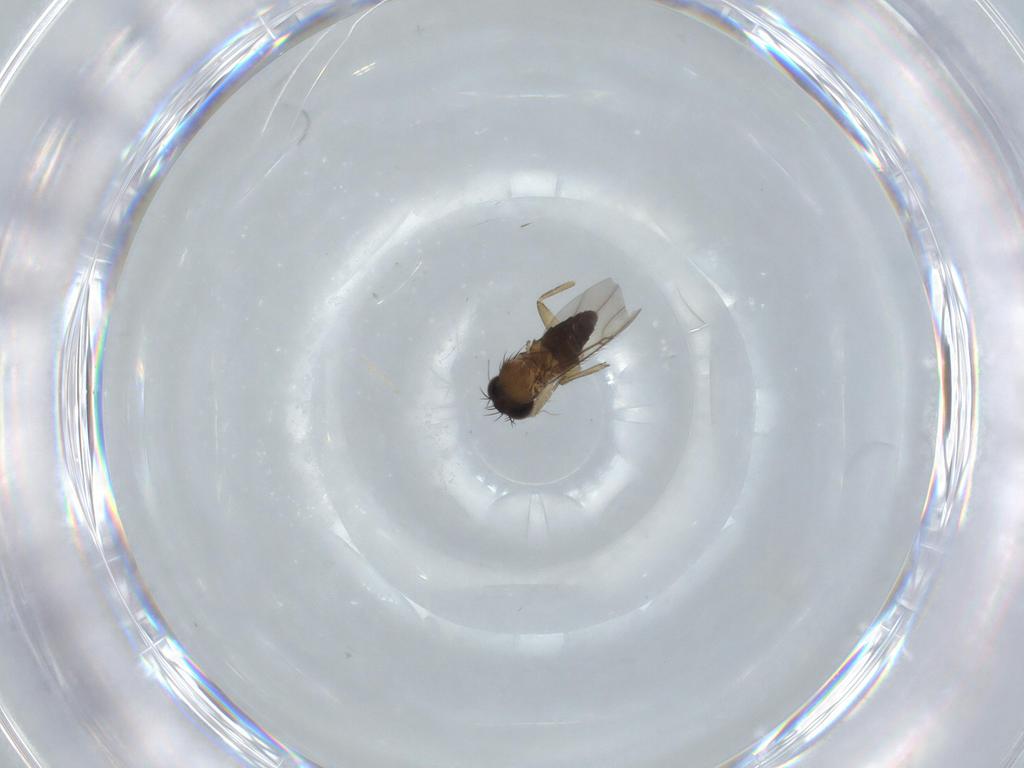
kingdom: Animalia
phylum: Arthropoda
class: Insecta
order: Diptera
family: Phoridae
